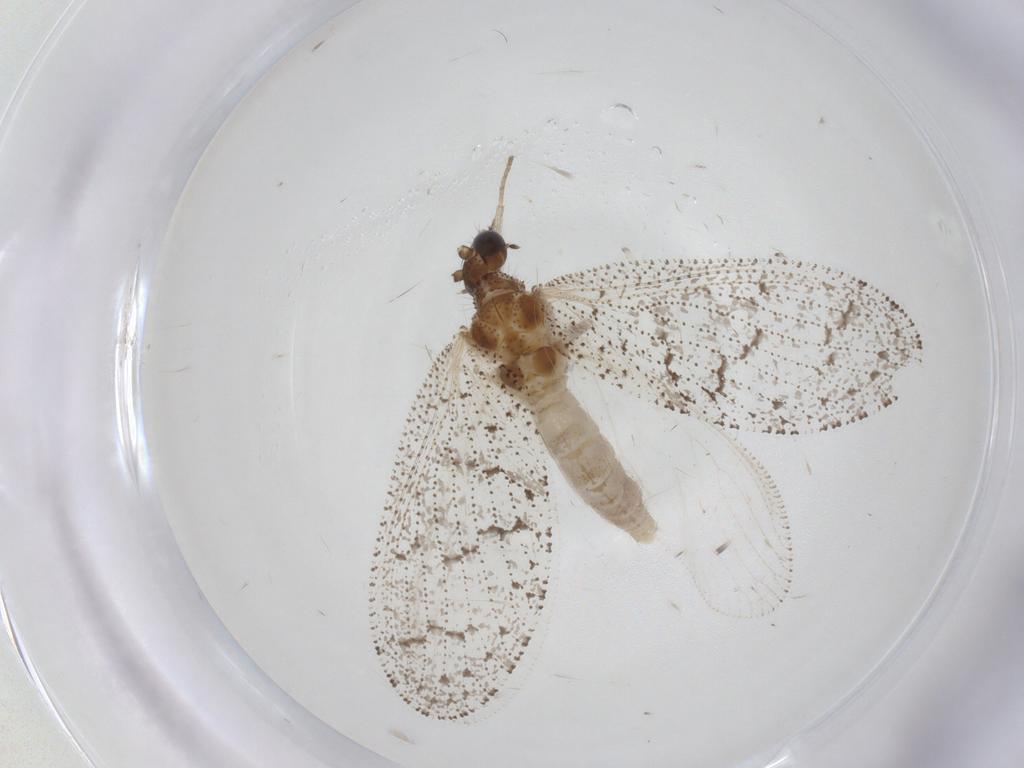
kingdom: Animalia
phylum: Arthropoda
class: Insecta
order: Neuroptera
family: Hemerobiidae
